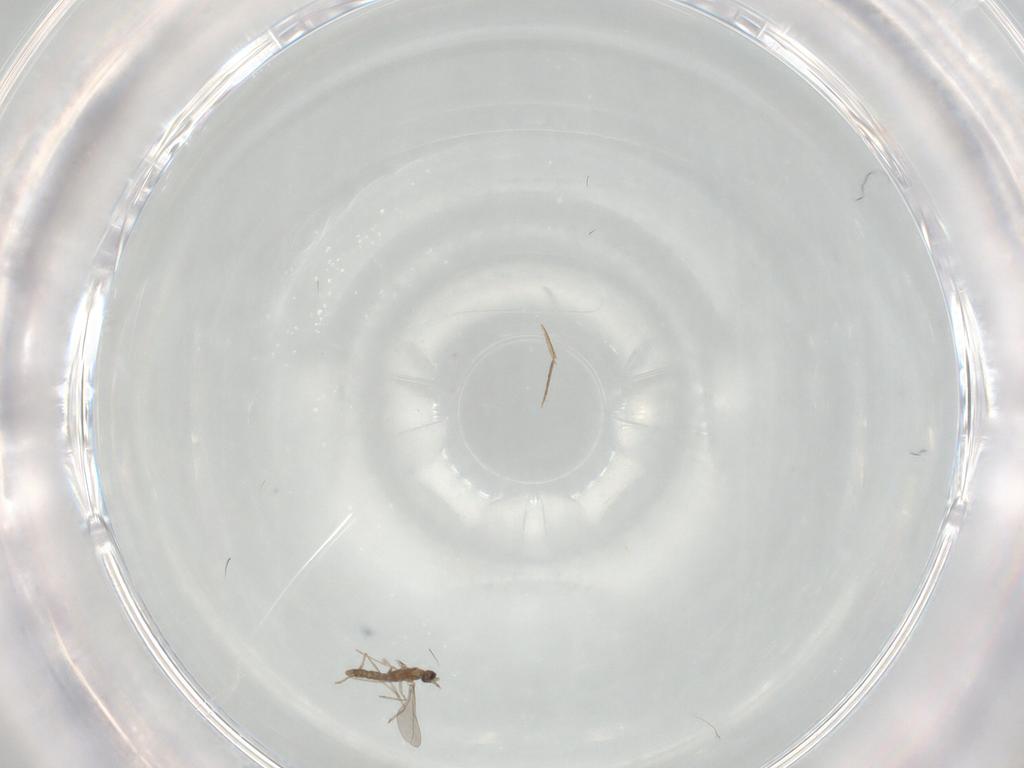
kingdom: Animalia
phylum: Arthropoda
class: Insecta
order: Diptera
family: Cecidomyiidae
